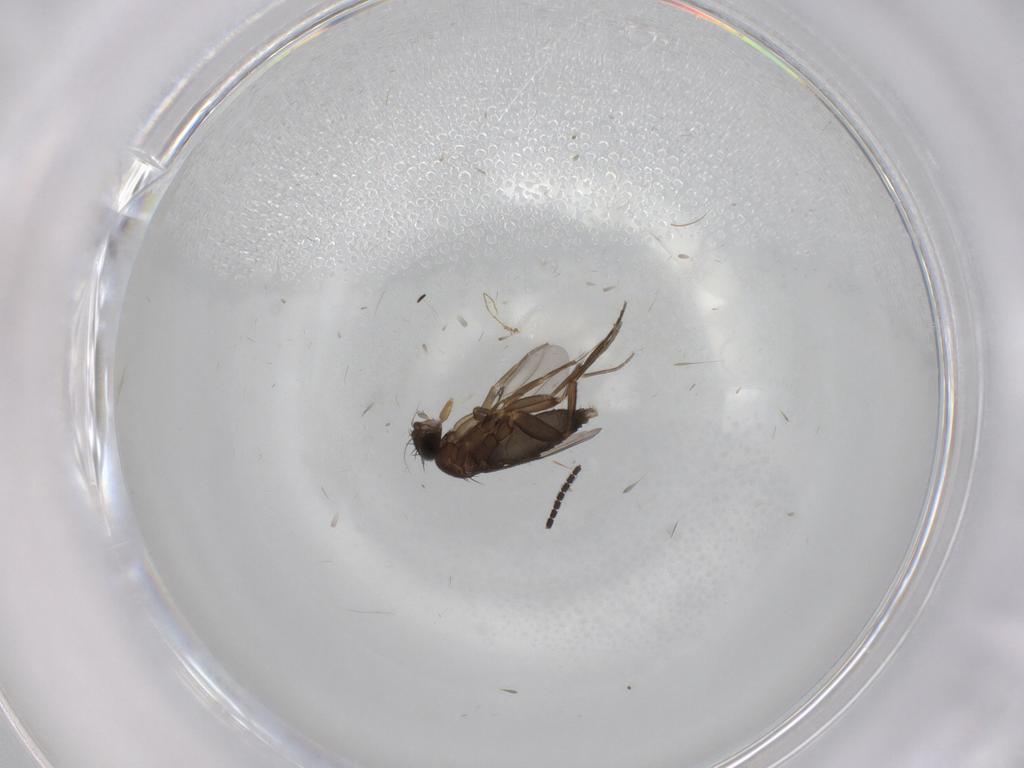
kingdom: Animalia
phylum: Arthropoda
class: Insecta
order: Diptera
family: Phoridae
